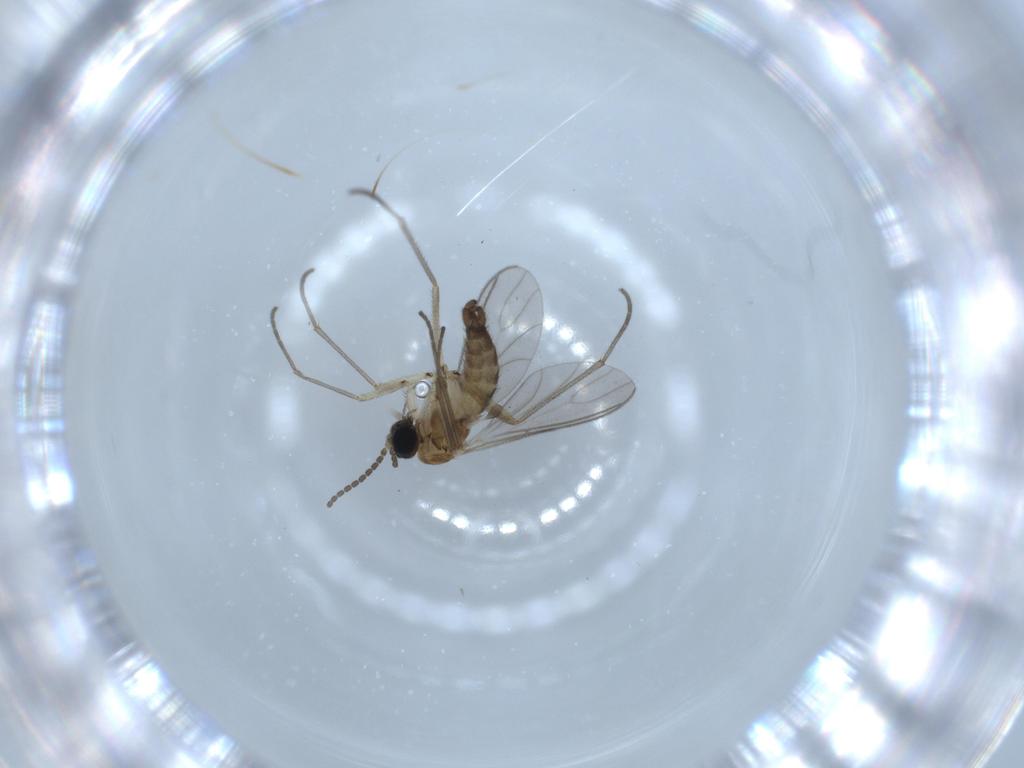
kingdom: Animalia
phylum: Arthropoda
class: Insecta
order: Diptera
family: Sciaridae
